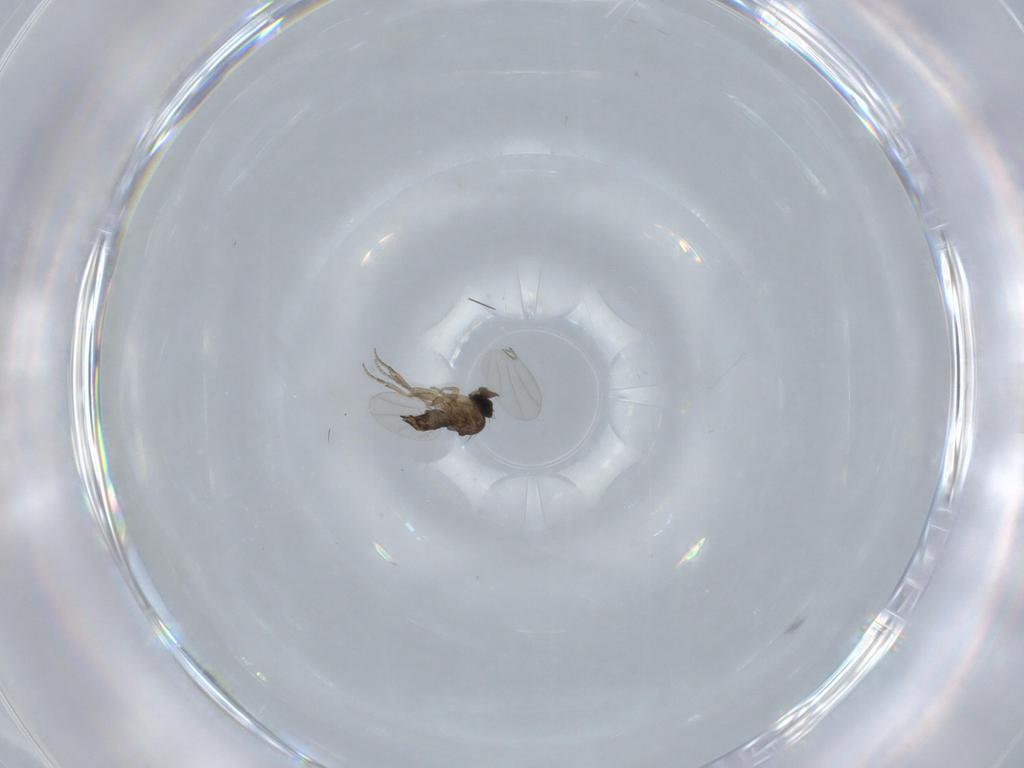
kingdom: Animalia
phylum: Arthropoda
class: Insecta
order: Diptera
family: Phoridae
